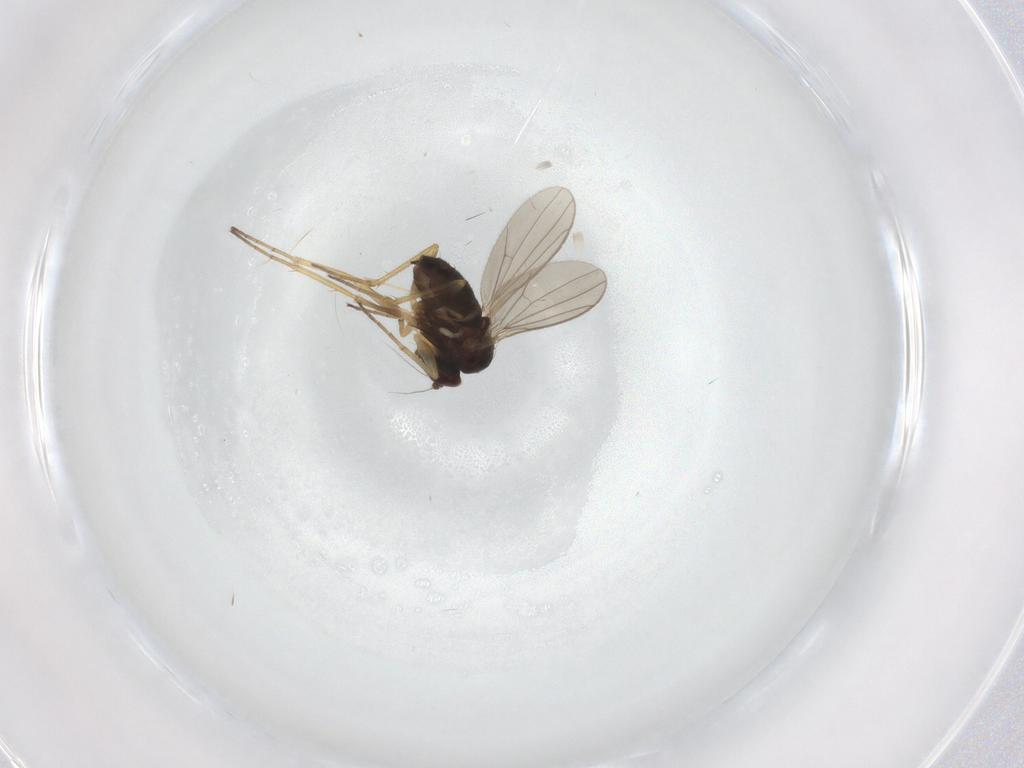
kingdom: Animalia
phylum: Arthropoda
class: Insecta
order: Diptera
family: Dolichopodidae
